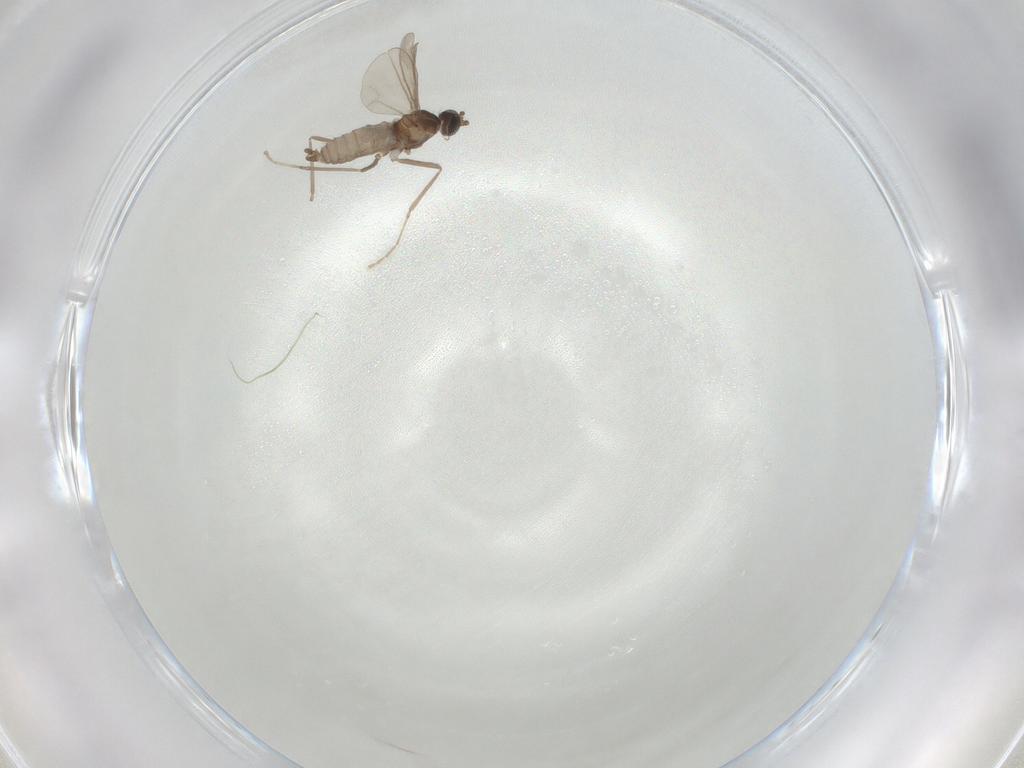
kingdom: Animalia
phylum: Arthropoda
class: Insecta
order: Diptera
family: Cecidomyiidae
